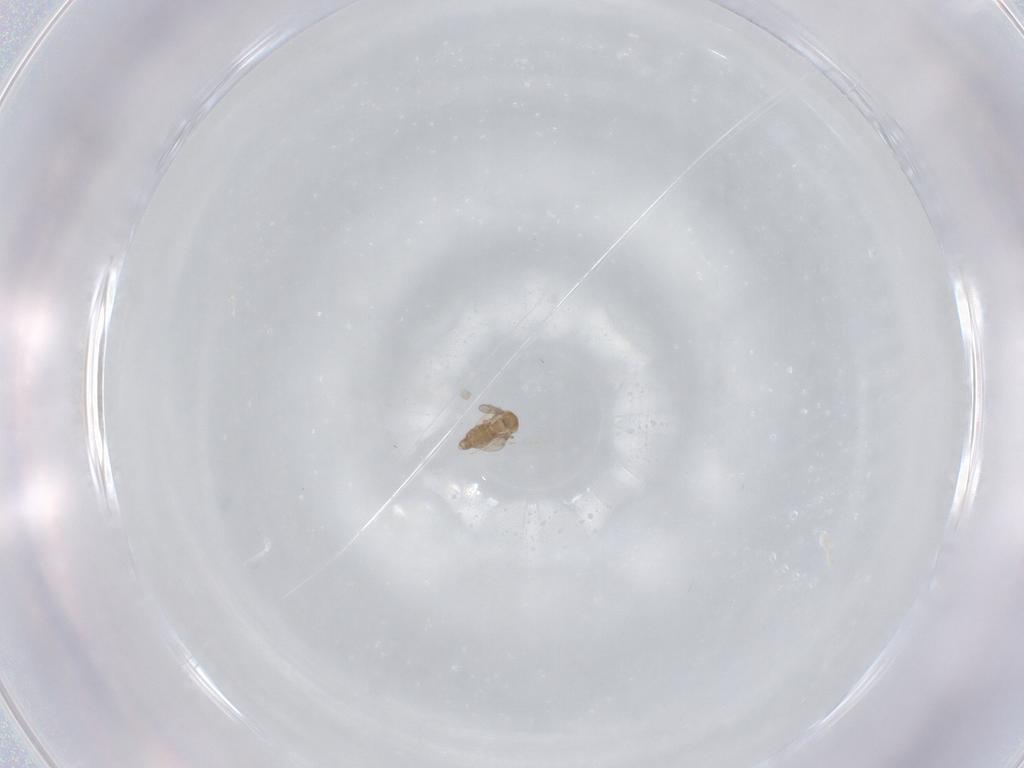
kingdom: Animalia
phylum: Arthropoda
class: Insecta
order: Diptera
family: Ceratopogonidae
